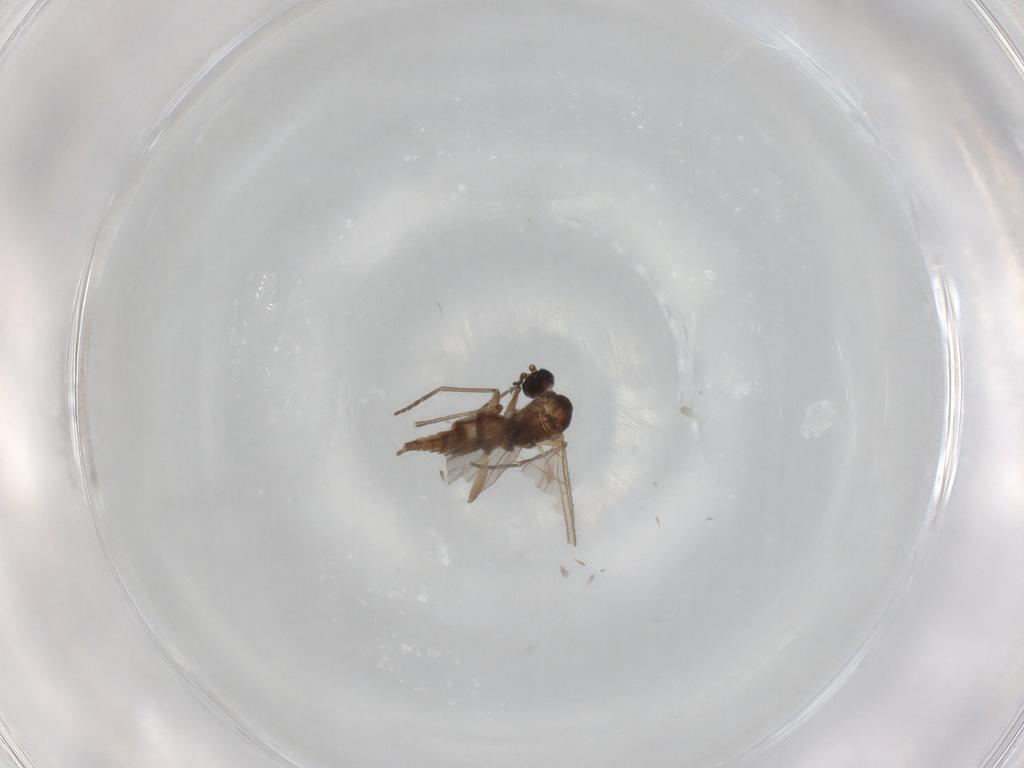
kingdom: Animalia
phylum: Arthropoda
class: Insecta
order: Diptera
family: Chironomidae
